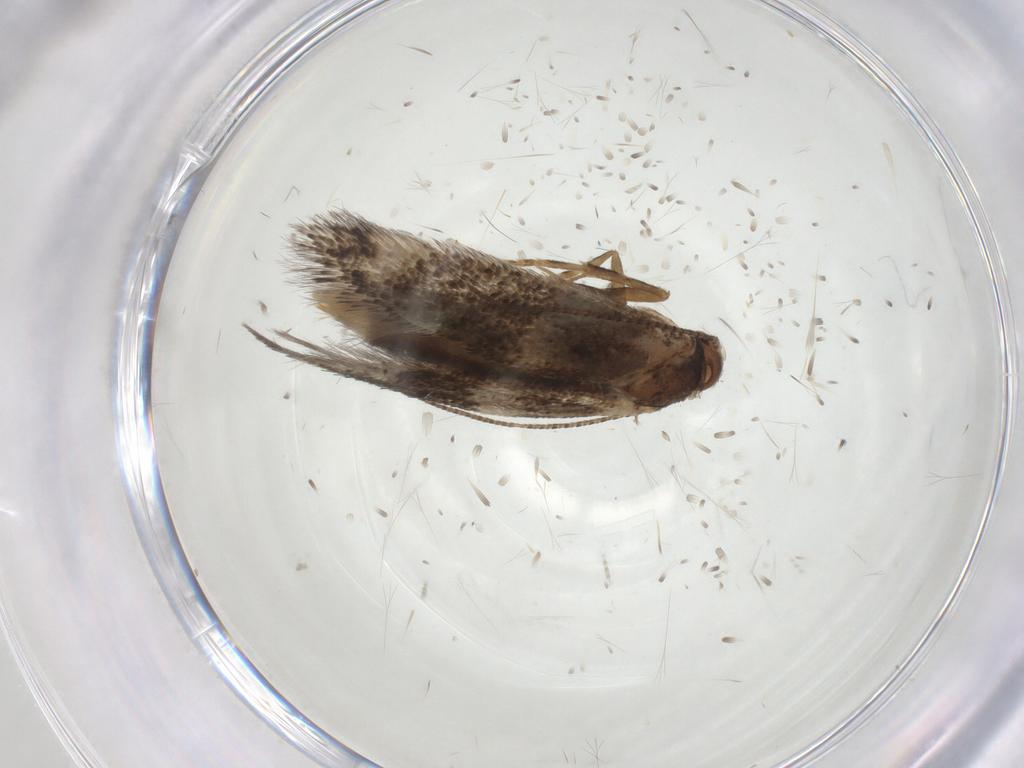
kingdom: Animalia
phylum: Arthropoda
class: Insecta
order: Lepidoptera
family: Elachistidae
